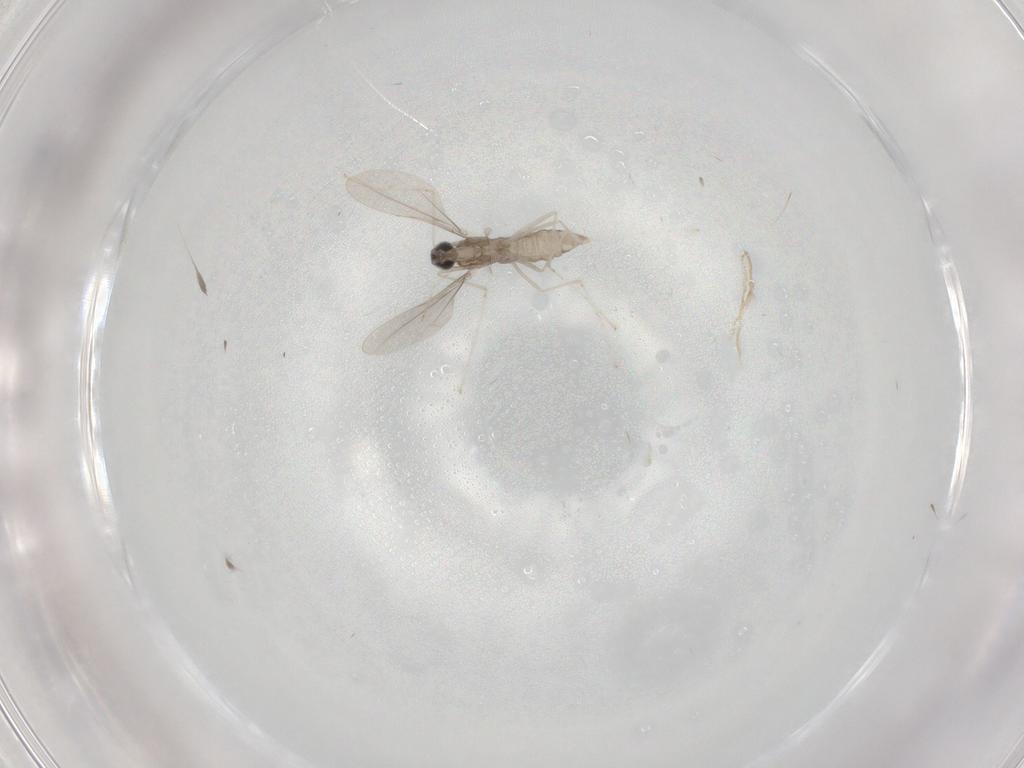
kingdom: Animalia
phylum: Arthropoda
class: Insecta
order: Diptera
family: Cecidomyiidae
